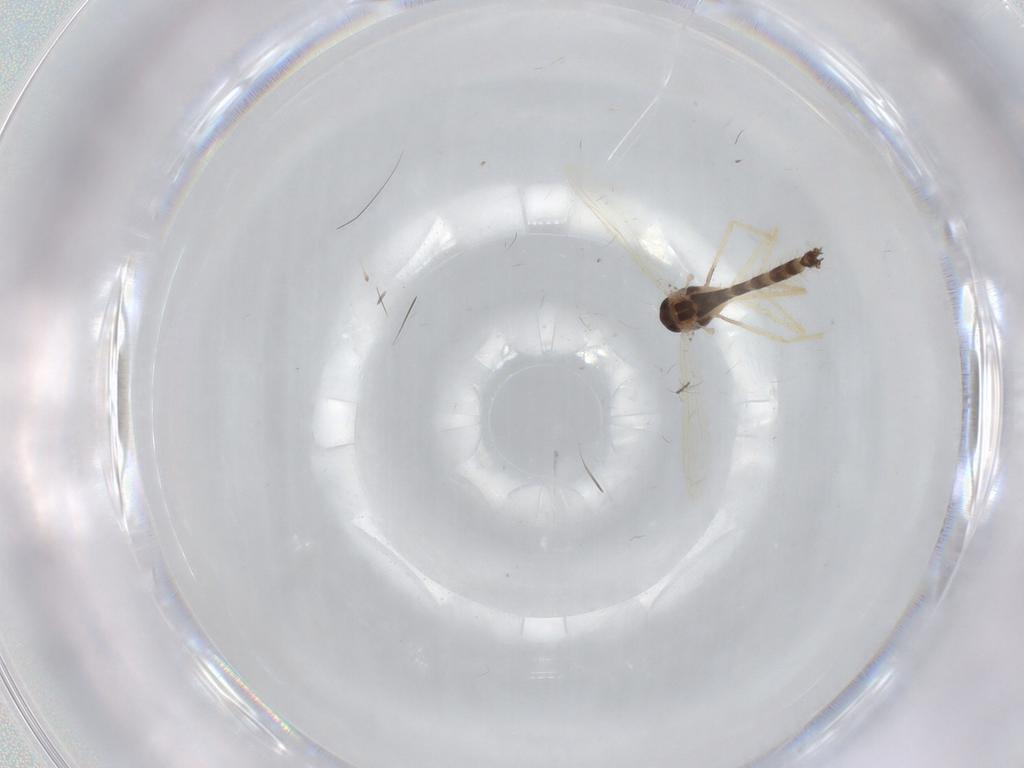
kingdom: Animalia
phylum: Arthropoda
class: Insecta
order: Diptera
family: Chironomidae
